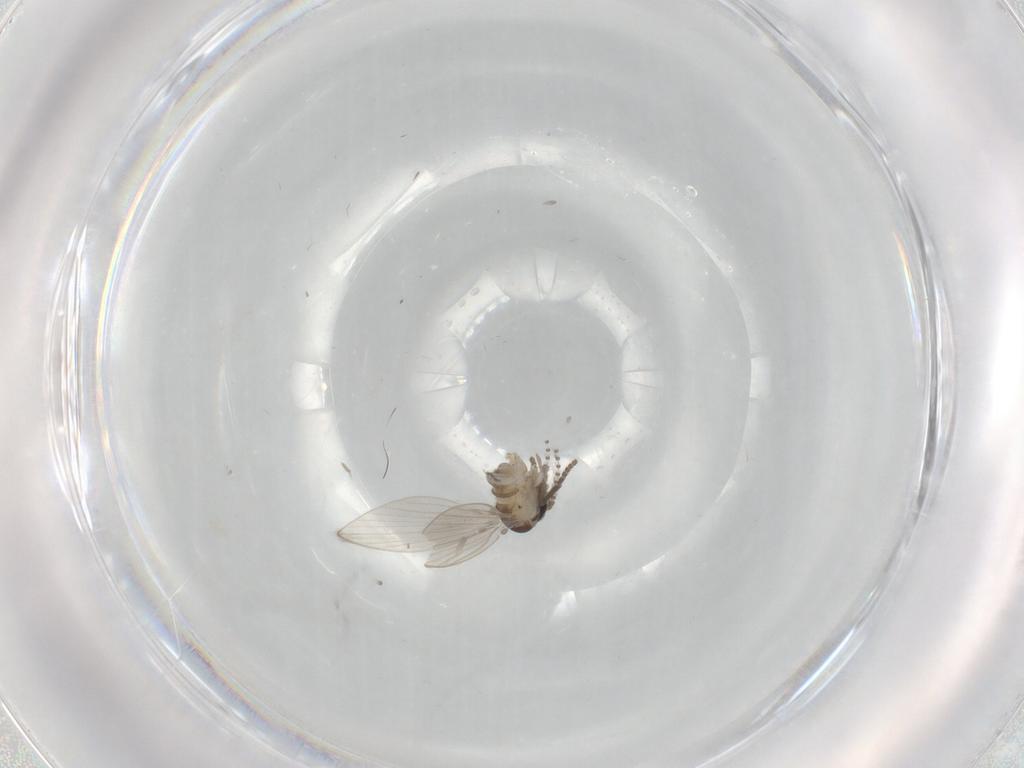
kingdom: Animalia
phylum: Arthropoda
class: Insecta
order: Diptera
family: Psychodidae
